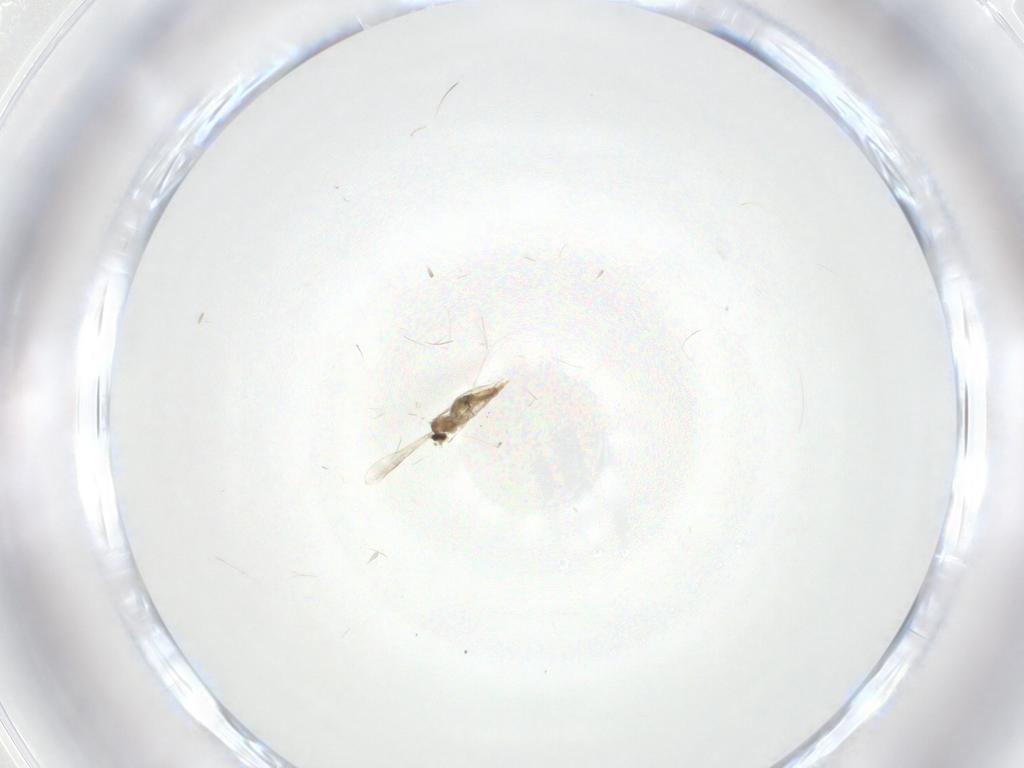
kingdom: Animalia
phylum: Arthropoda
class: Insecta
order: Diptera
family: Cecidomyiidae
